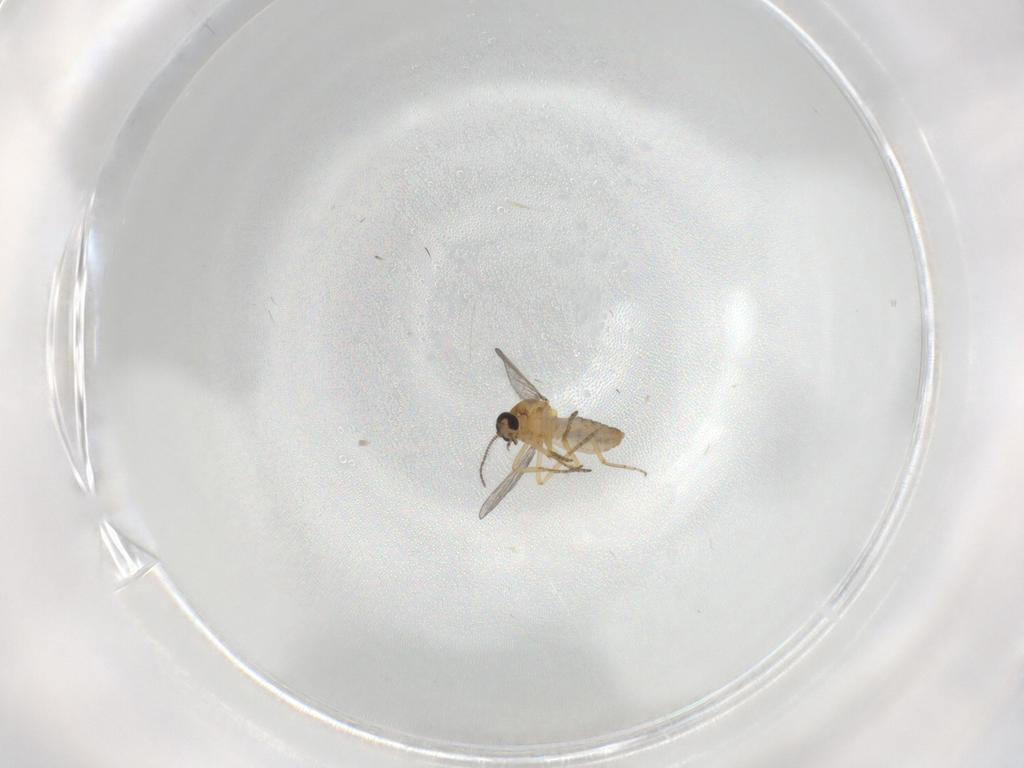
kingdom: Animalia
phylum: Arthropoda
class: Insecta
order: Diptera
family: Ceratopogonidae
